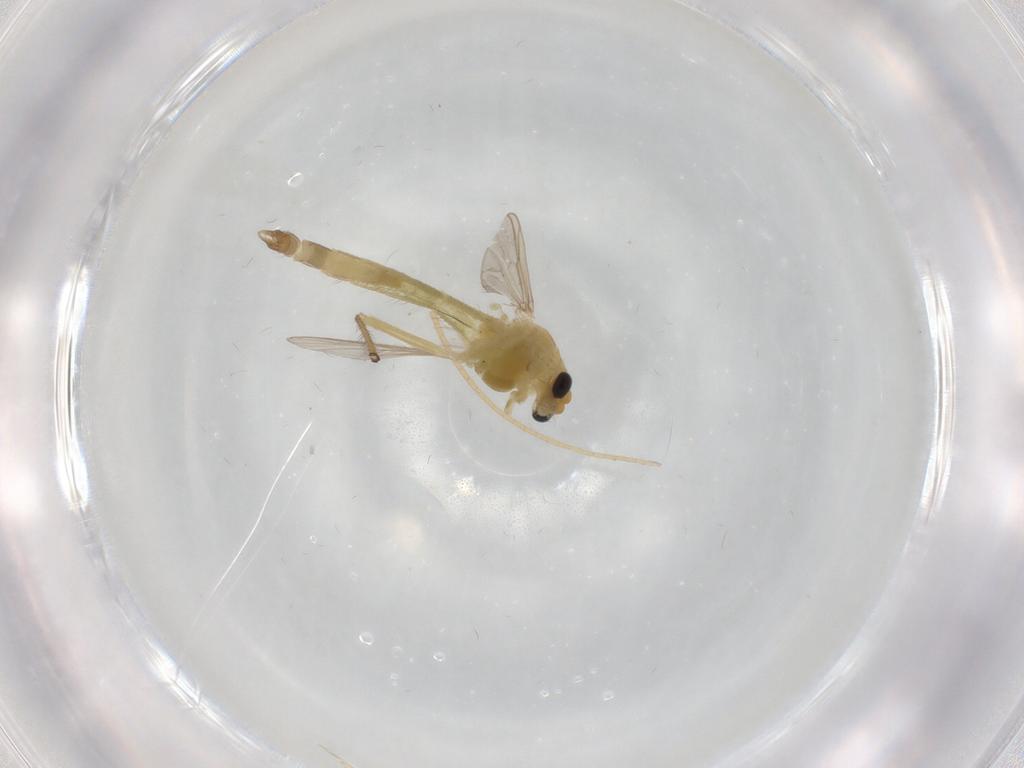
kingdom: Animalia
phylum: Arthropoda
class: Insecta
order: Diptera
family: Chironomidae
